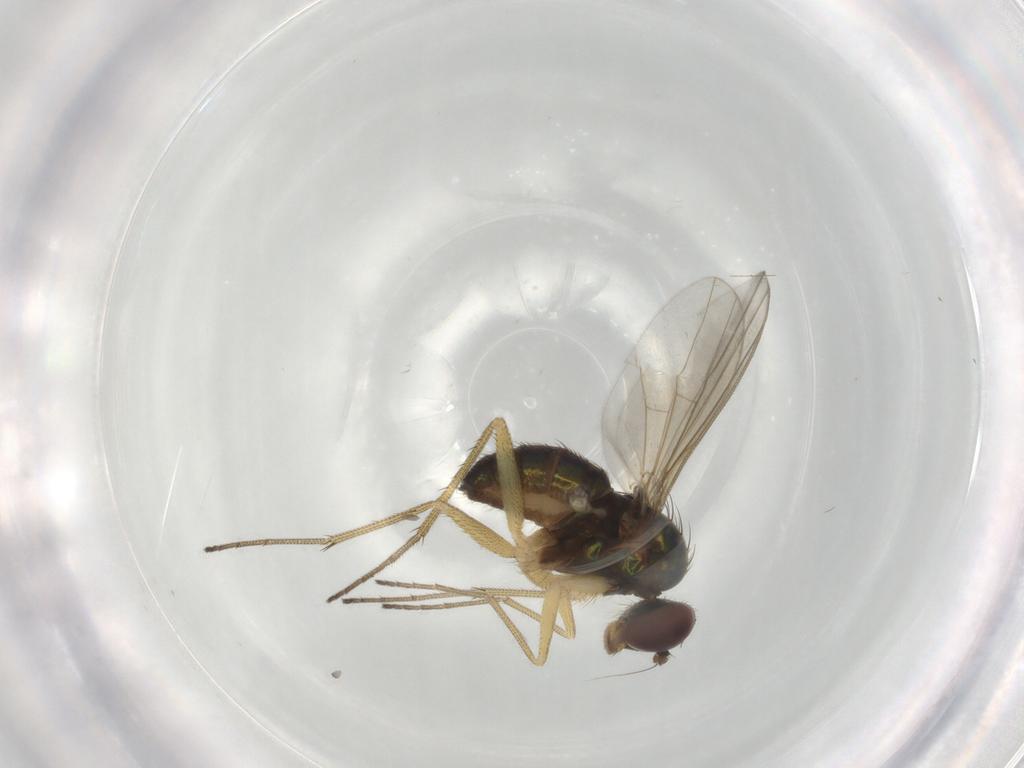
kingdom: Animalia
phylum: Arthropoda
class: Insecta
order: Diptera
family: Dolichopodidae
